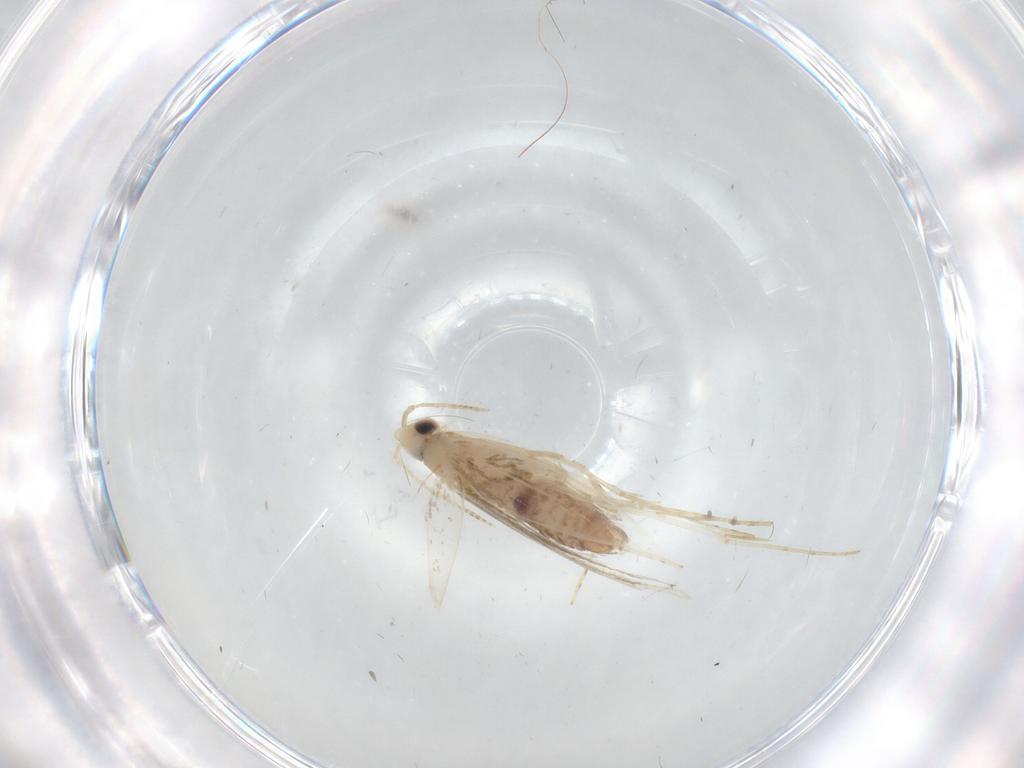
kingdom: Animalia
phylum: Arthropoda
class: Insecta
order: Lepidoptera
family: Gracillariidae
